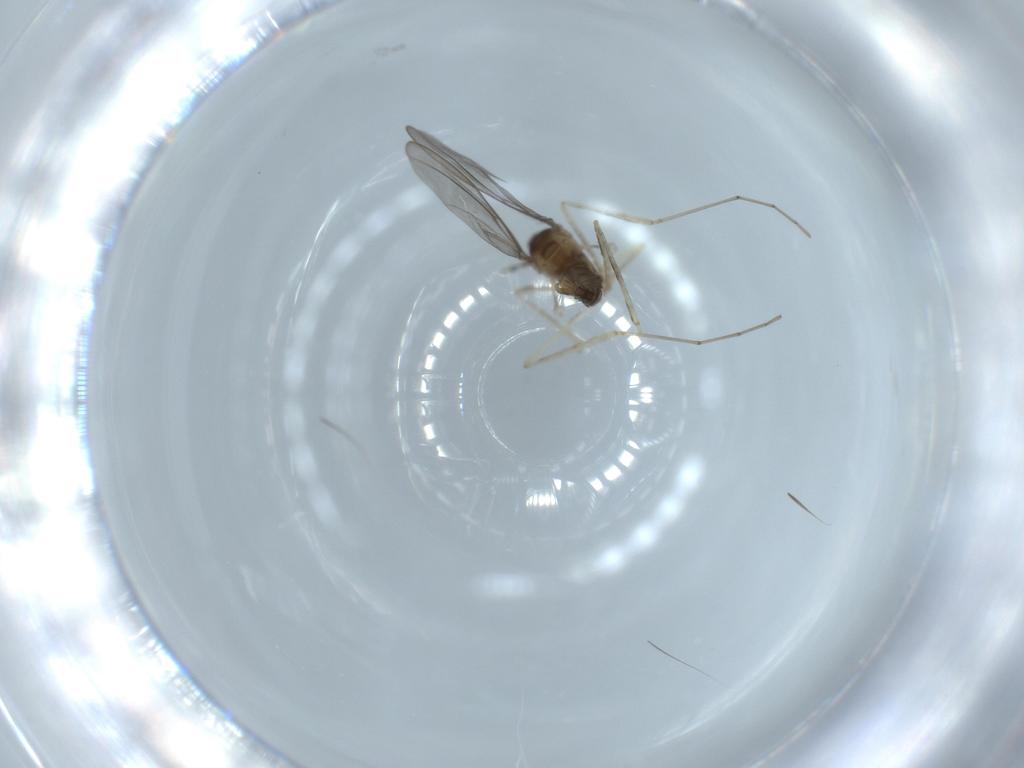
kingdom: Animalia
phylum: Arthropoda
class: Insecta
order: Diptera
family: Cecidomyiidae
